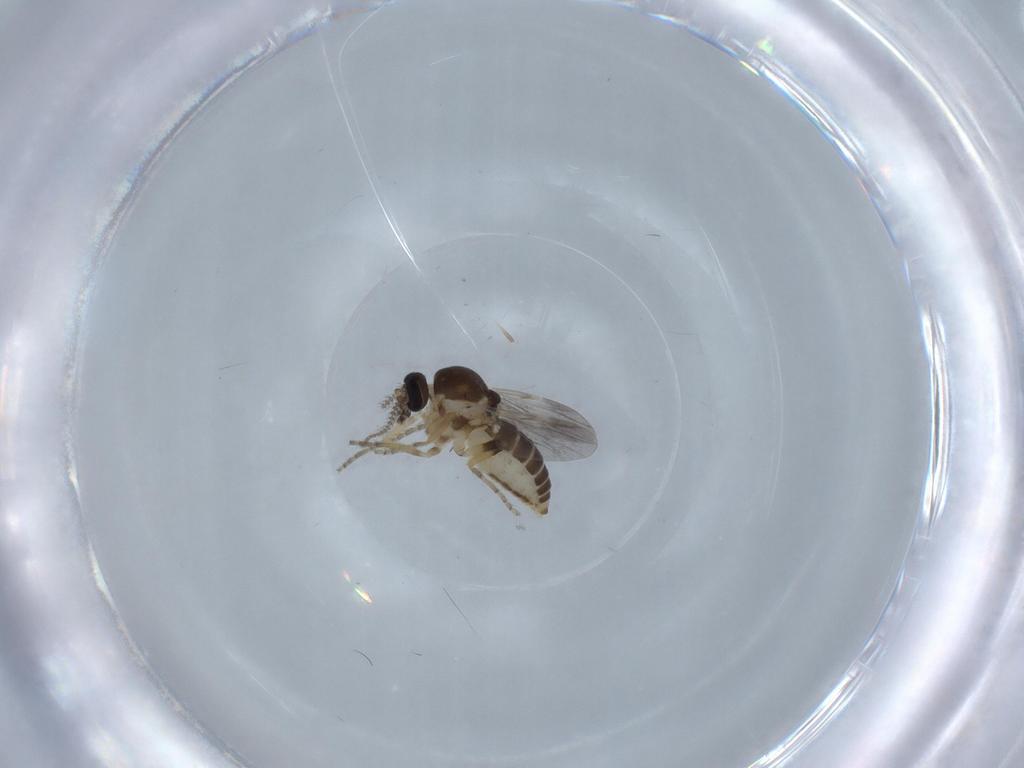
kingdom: Animalia
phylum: Arthropoda
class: Insecta
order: Diptera
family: Ceratopogonidae
